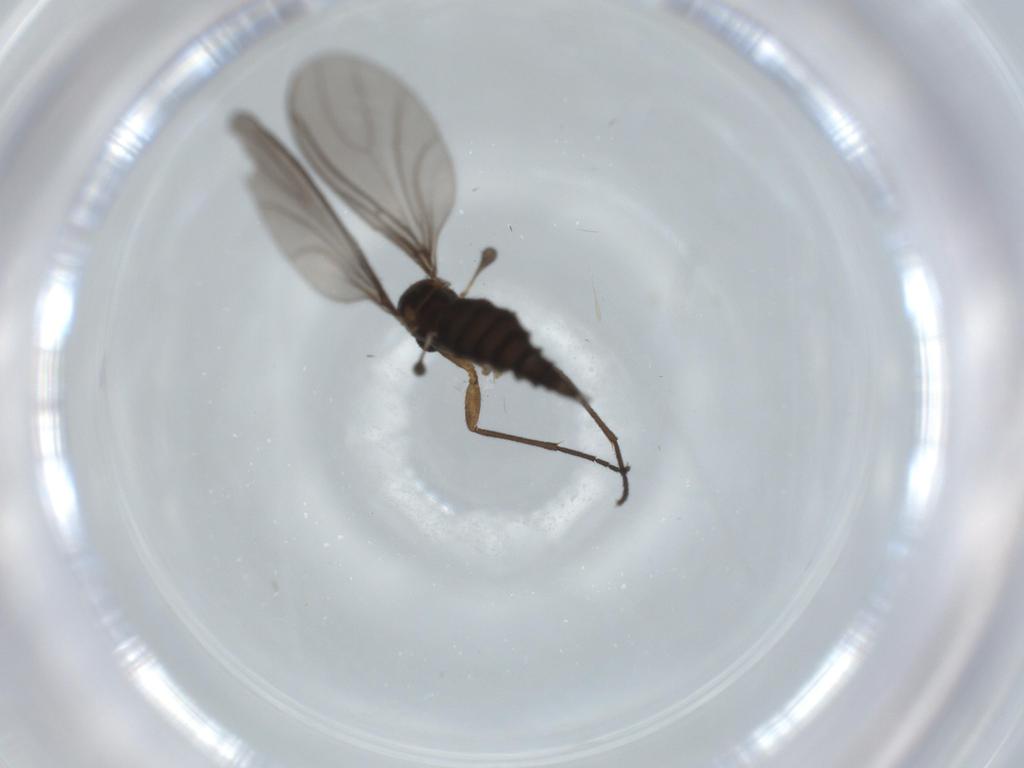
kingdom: Animalia
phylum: Arthropoda
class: Insecta
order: Diptera
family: Sciaridae
